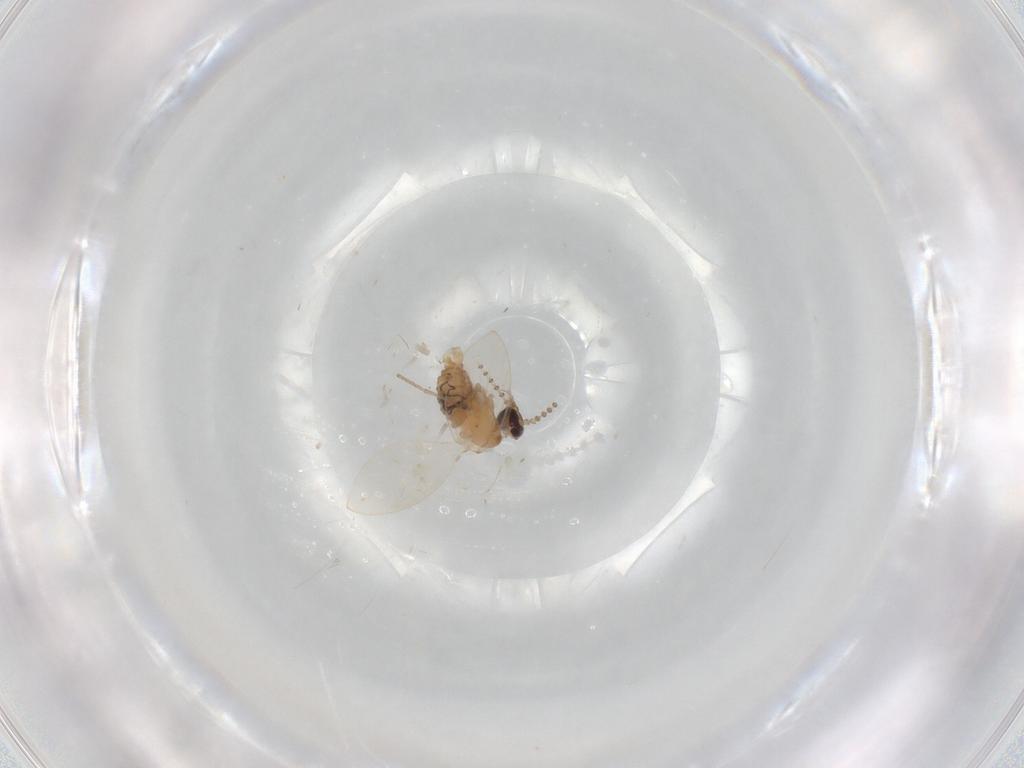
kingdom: Animalia
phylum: Arthropoda
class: Insecta
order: Diptera
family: Psychodidae
